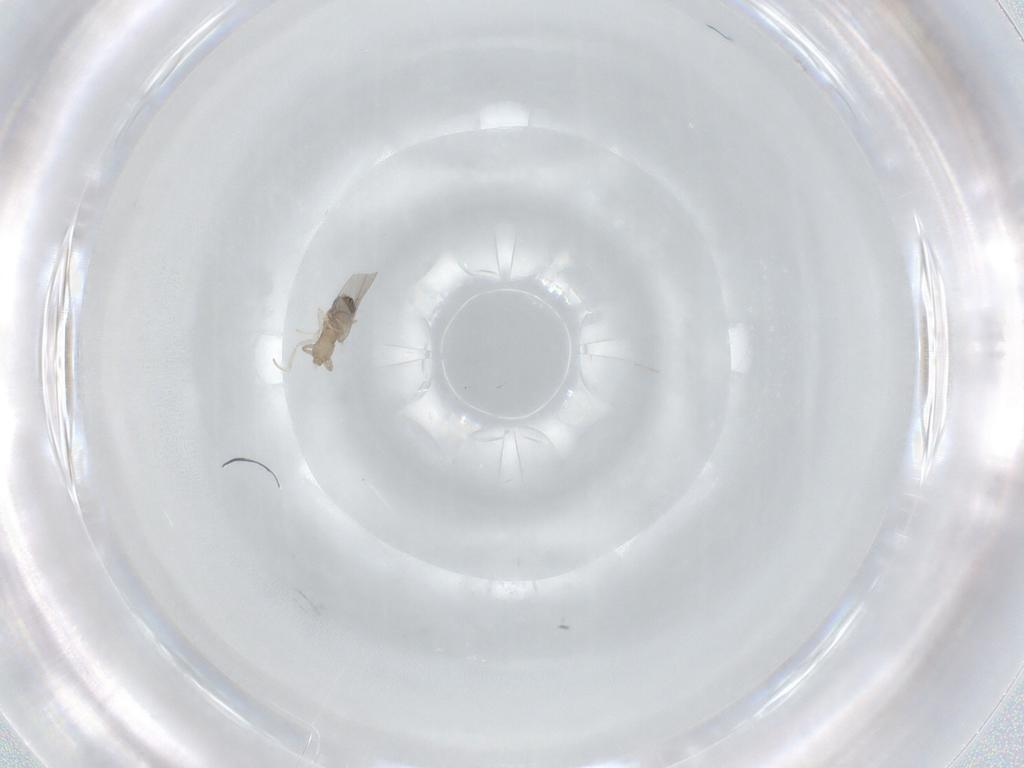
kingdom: Animalia
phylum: Arthropoda
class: Insecta
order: Diptera
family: Cecidomyiidae
